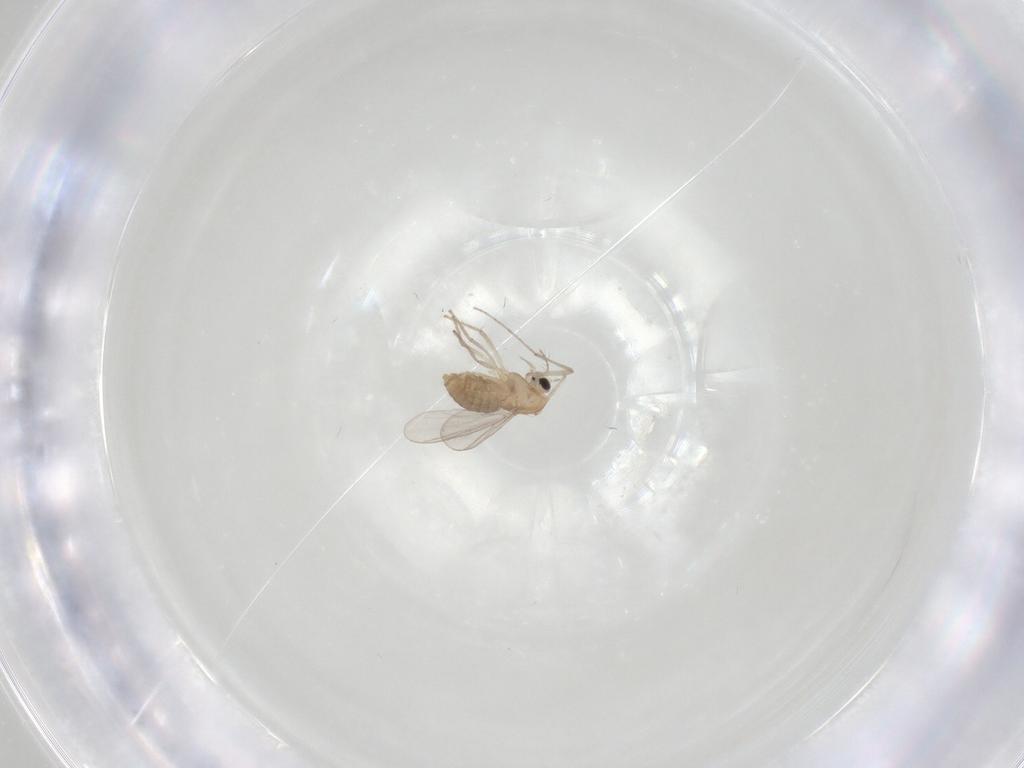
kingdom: Animalia
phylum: Arthropoda
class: Insecta
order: Diptera
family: Chironomidae
